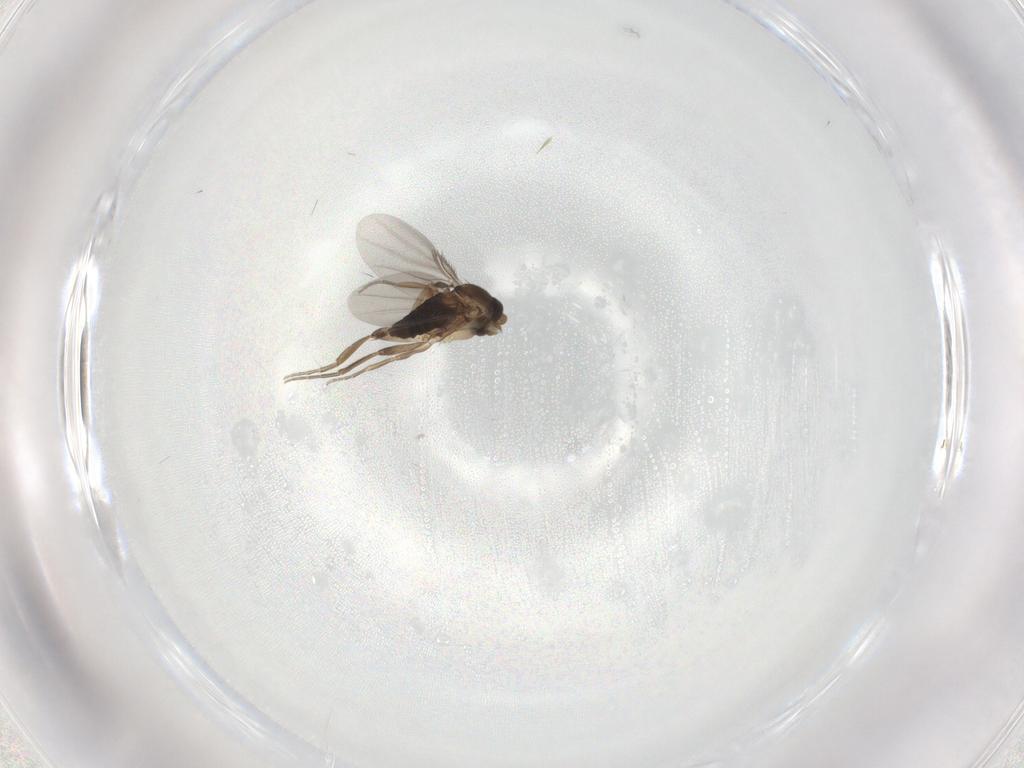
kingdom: Animalia
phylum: Arthropoda
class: Insecta
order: Diptera
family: Phoridae
